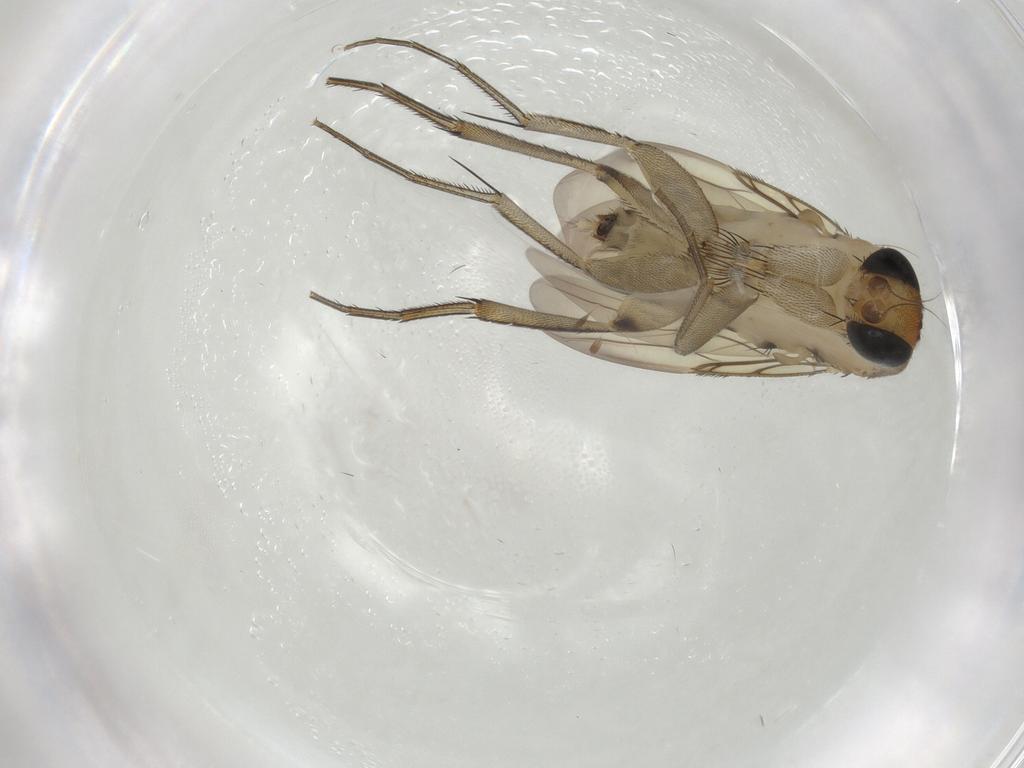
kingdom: Animalia
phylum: Arthropoda
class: Insecta
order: Diptera
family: Phoridae
